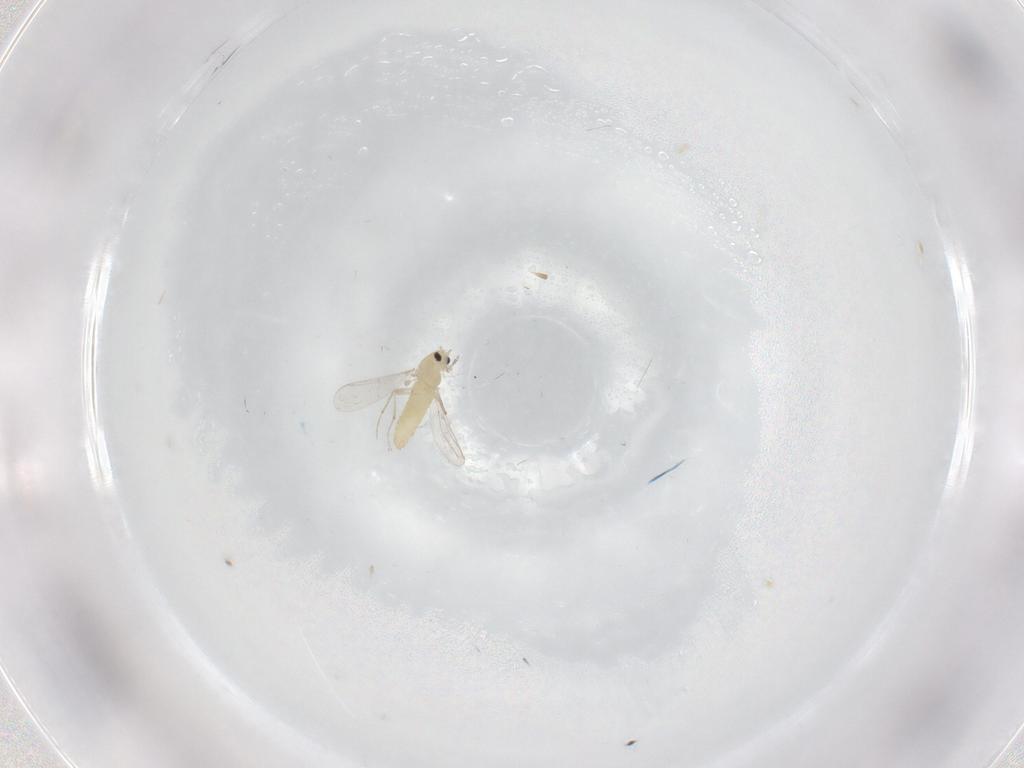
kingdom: Animalia
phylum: Arthropoda
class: Insecta
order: Diptera
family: Chironomidae
